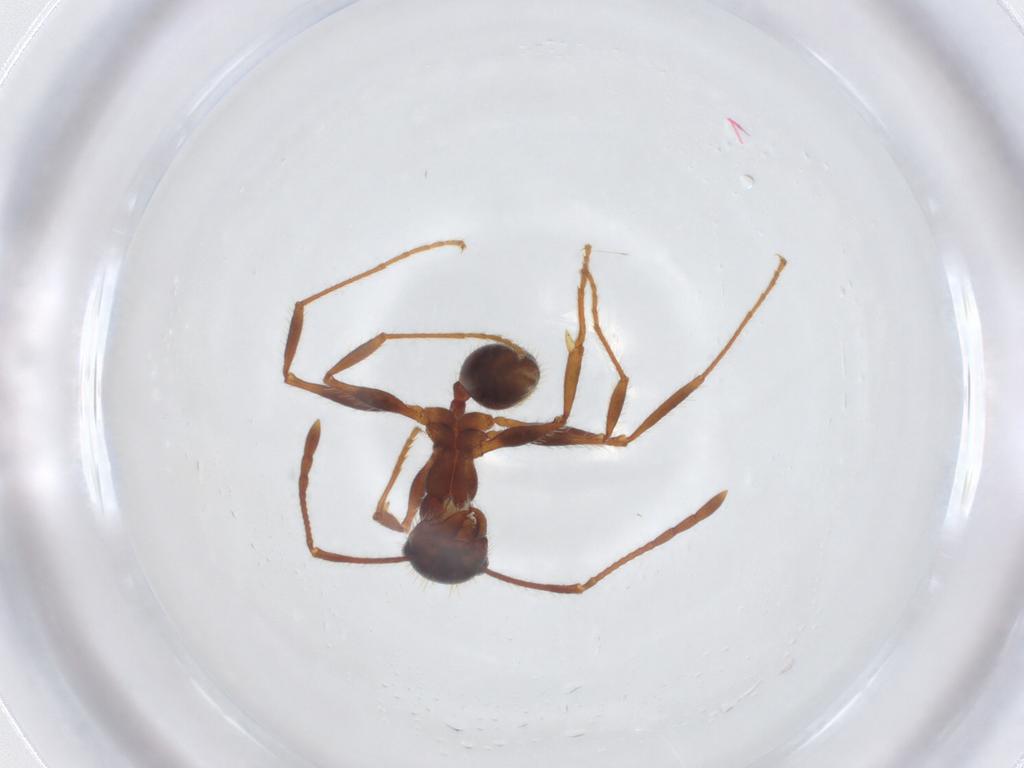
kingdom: Animalia
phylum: Arthropoda
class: Insecta
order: Hymenoptera
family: Formicidae
